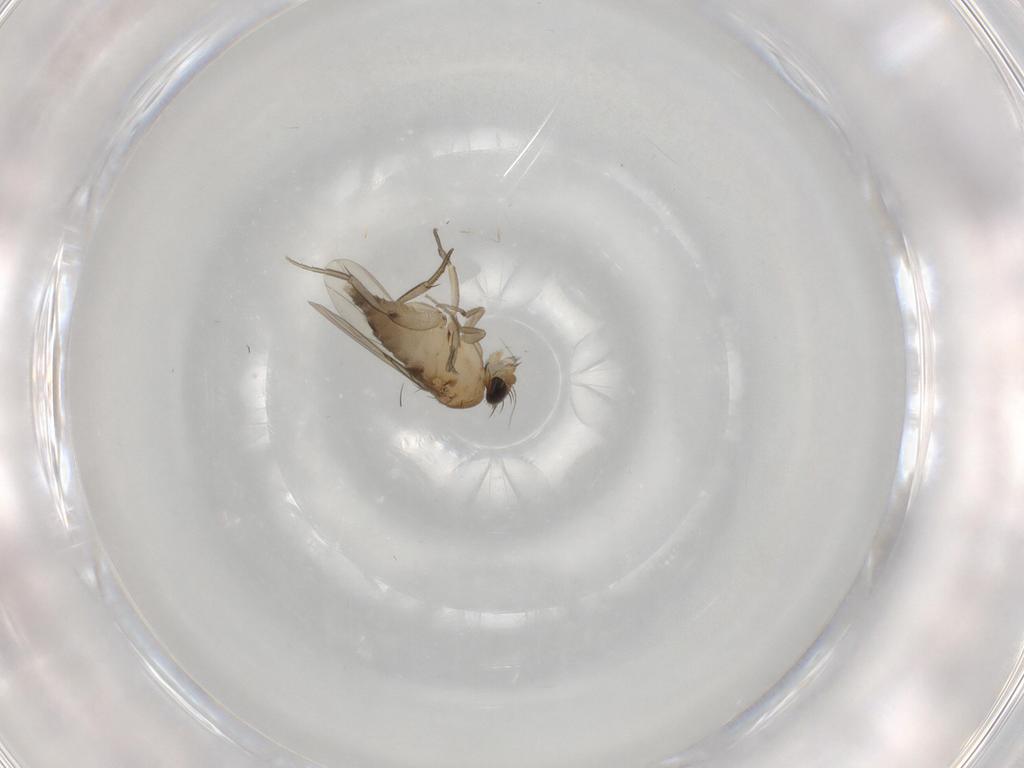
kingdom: Animalia
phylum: Arthropoda
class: Insecta
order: Diptera
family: Phoridae
